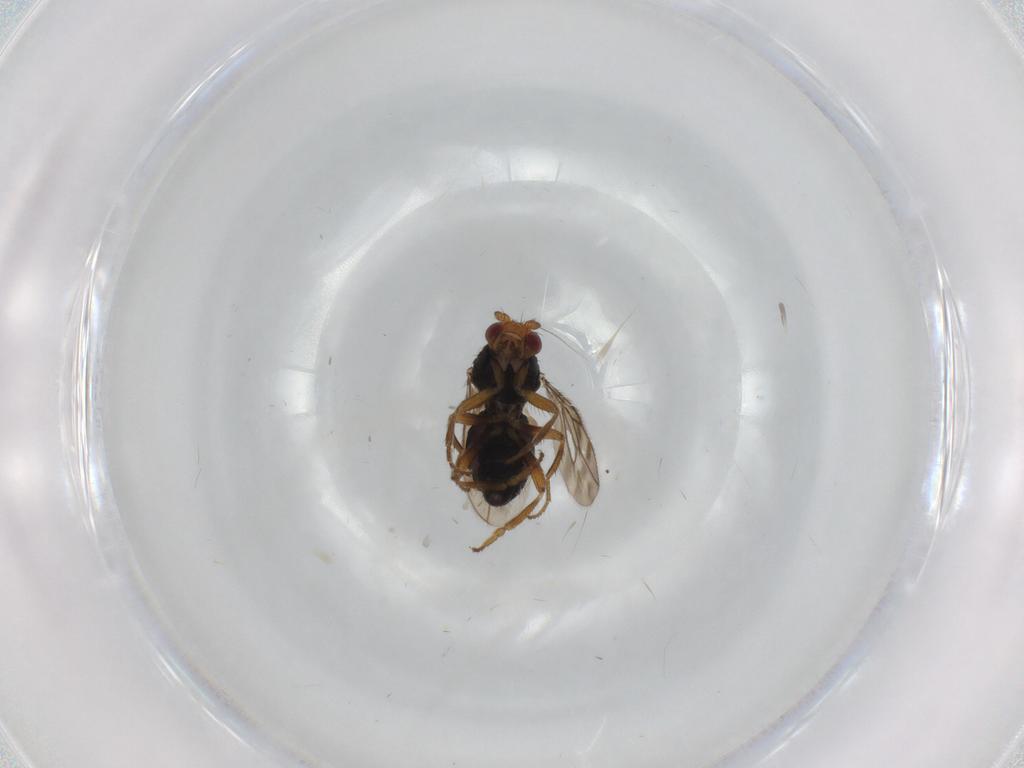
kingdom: Animalia
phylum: Arthropoda
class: Insecta
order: Diptera
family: Sphaeroceridae
